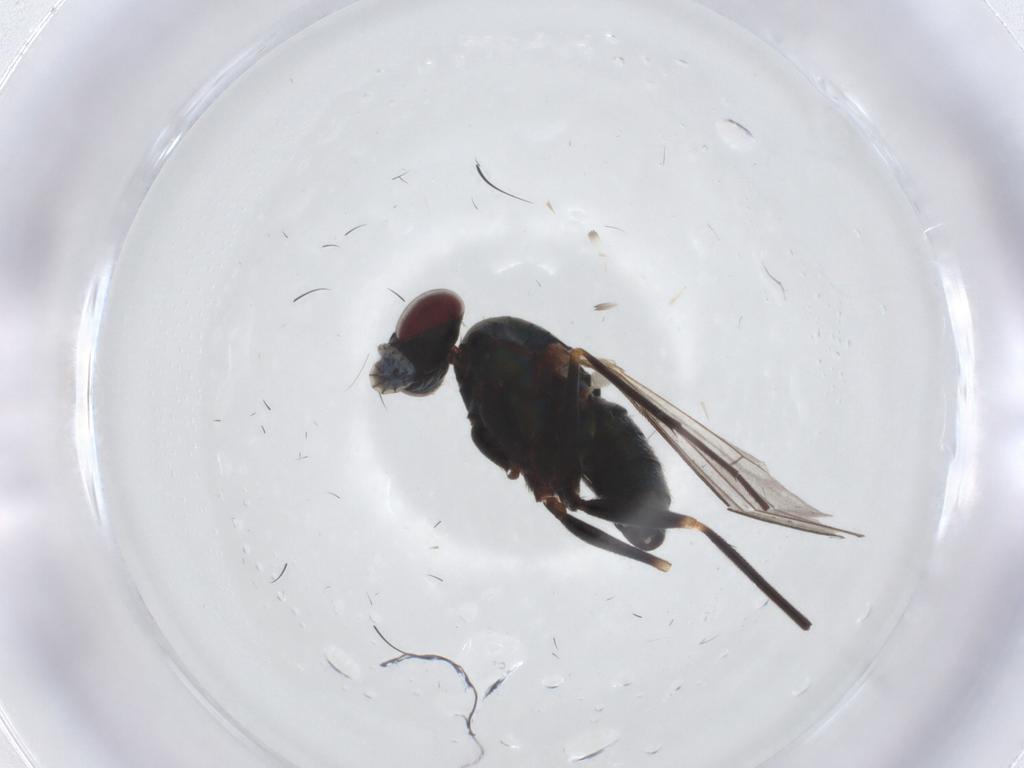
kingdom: Animalia
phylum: Arthropoda
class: Insecta
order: Diptera
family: Dolichopodidae
